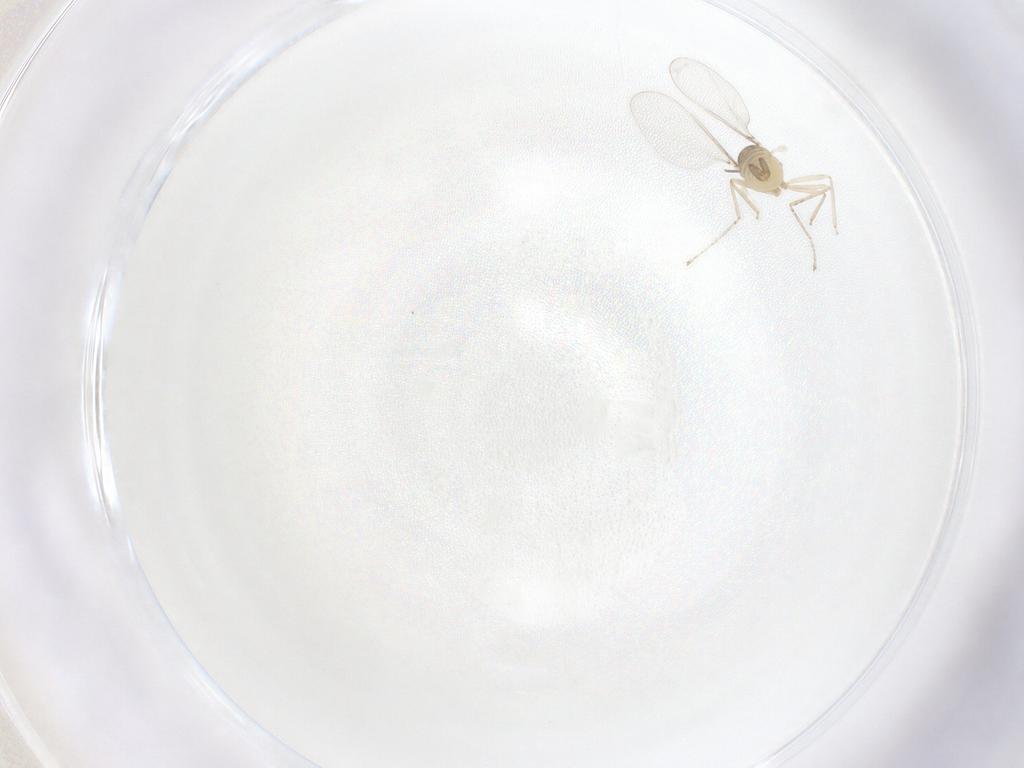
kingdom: Animalia
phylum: Arthropoda
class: Insecta
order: Diptera
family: Cecidomyiidae
